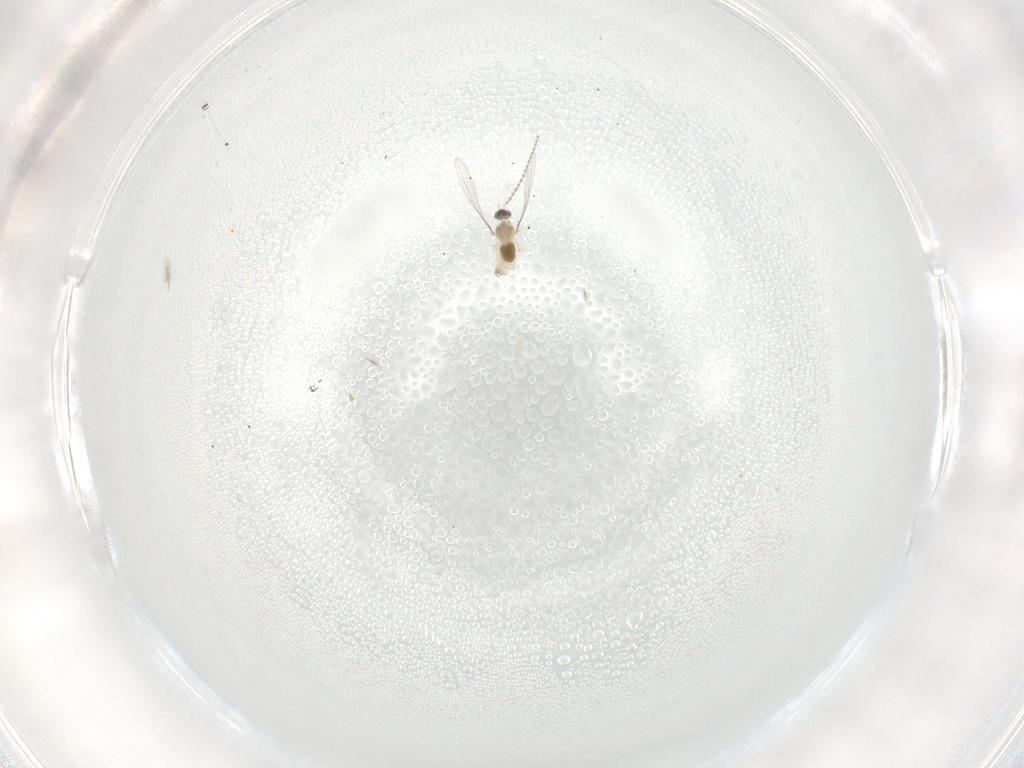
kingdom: Animalia
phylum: Arthropoda
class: Insecta
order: Diptera
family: Cecidomyiidae
